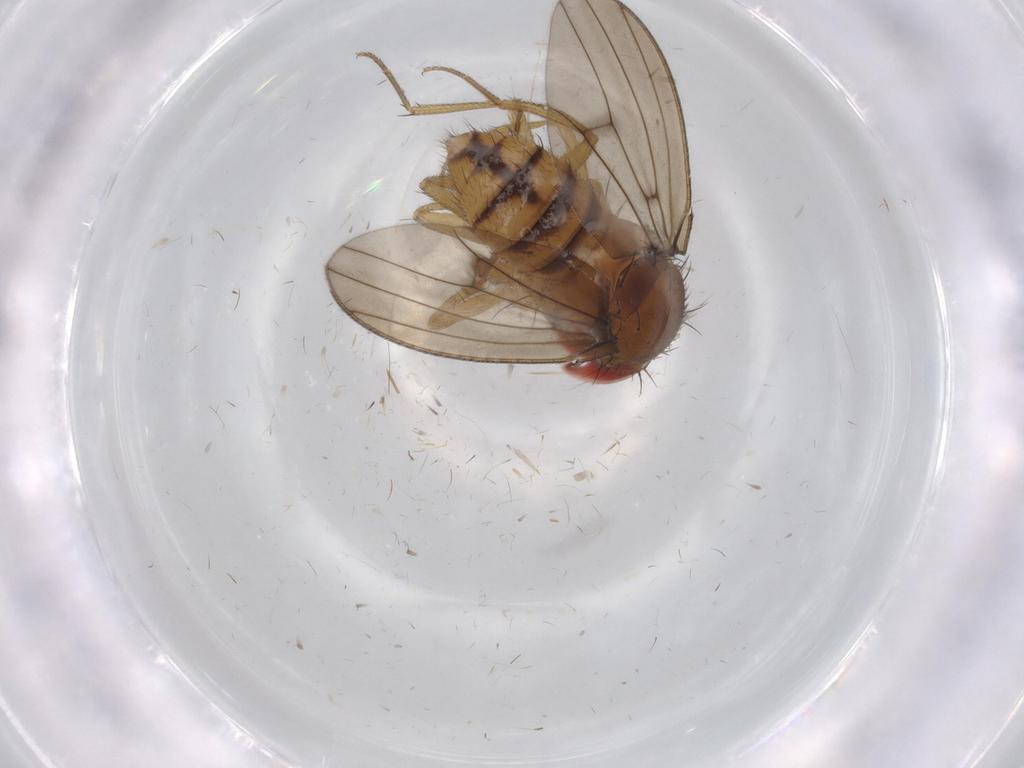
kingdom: Animalia
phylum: Arthropoda
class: Insecta
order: Diptera
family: Drosophilidae
